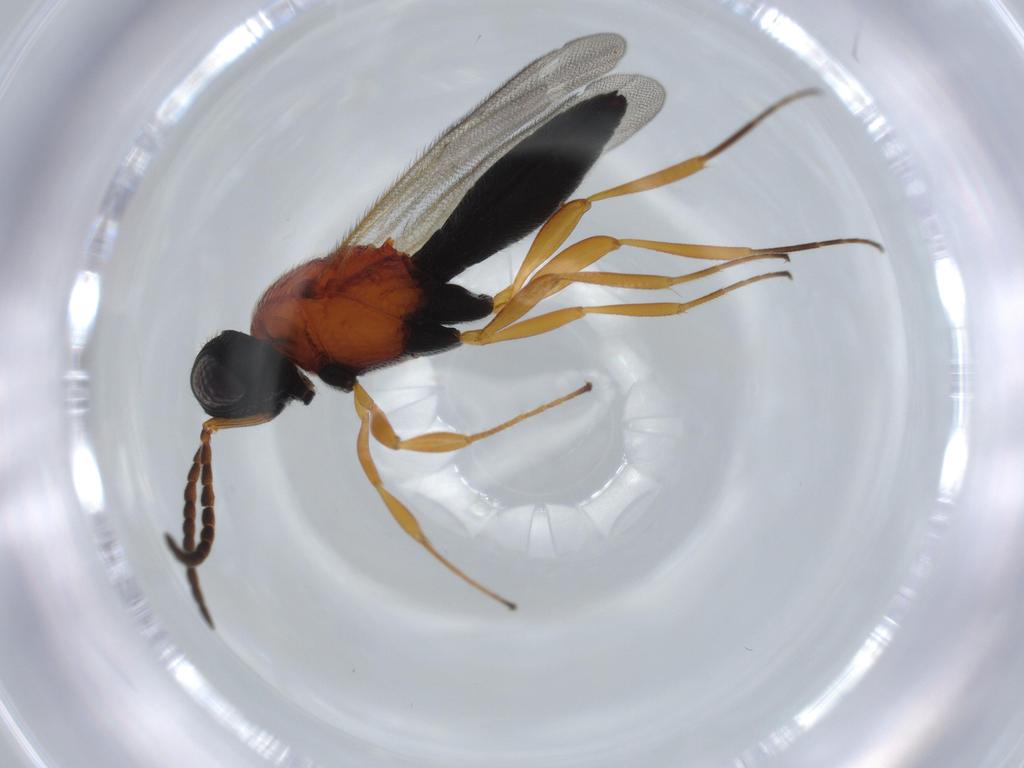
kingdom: Animalia
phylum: Arthropoda
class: Insecta
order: Hymenoptera
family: Scelionidae
